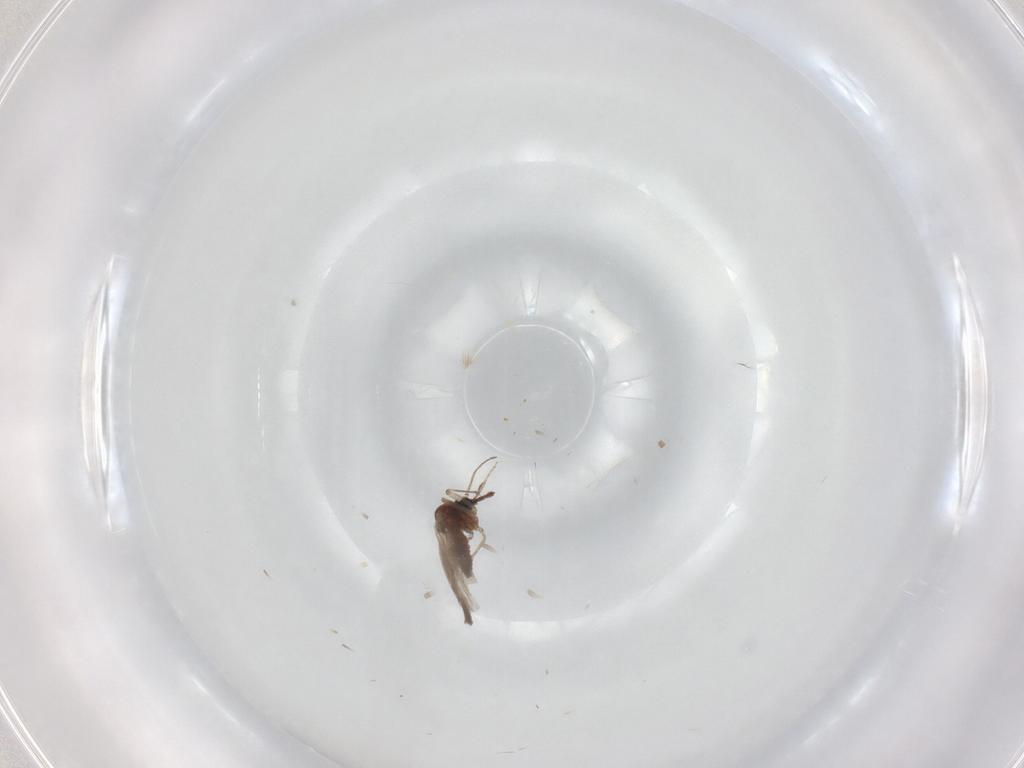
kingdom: Animalia
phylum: Arthropoda
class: Insecta
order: Diptera
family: Ceratopogonidae
